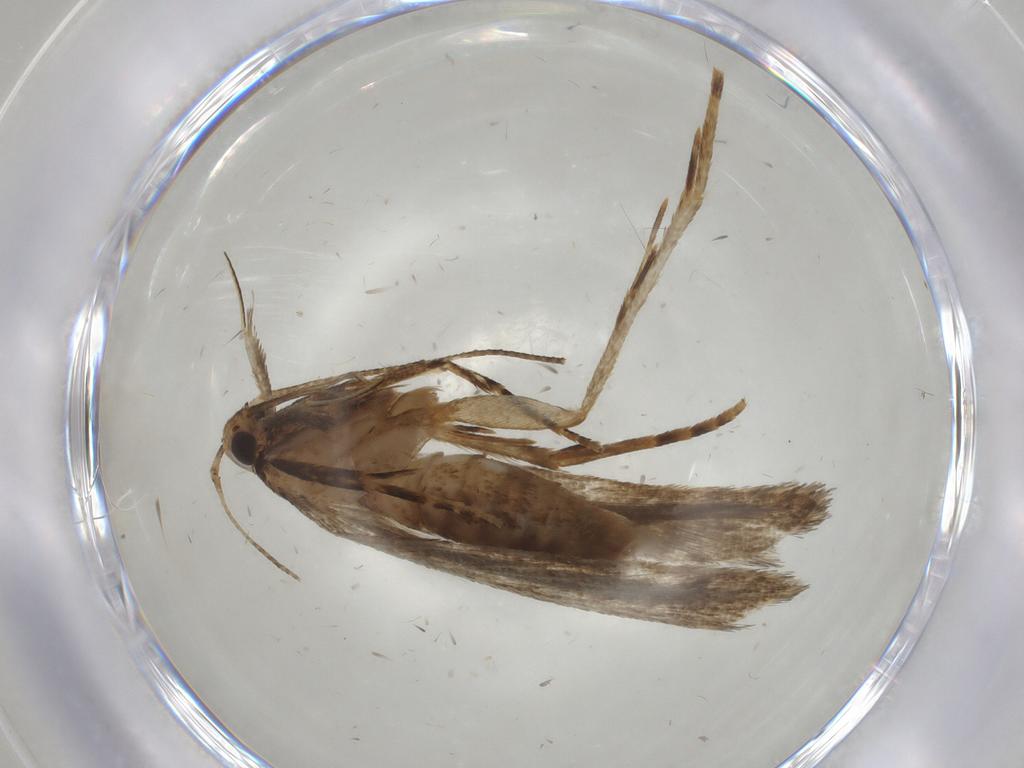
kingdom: Animalia
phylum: Arthropoda
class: Insecta
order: Lepidoptera
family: Gelechiidae
